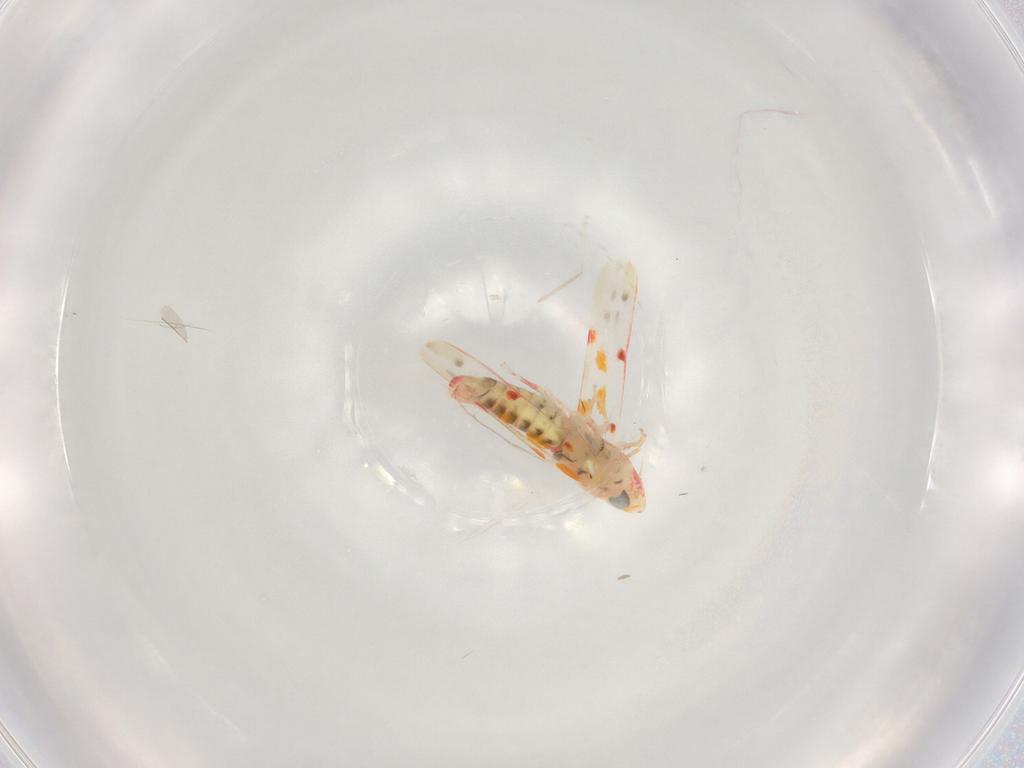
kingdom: Animalia
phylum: Arthropoda
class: Insecta
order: Hemiptera
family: Cicadellidae
